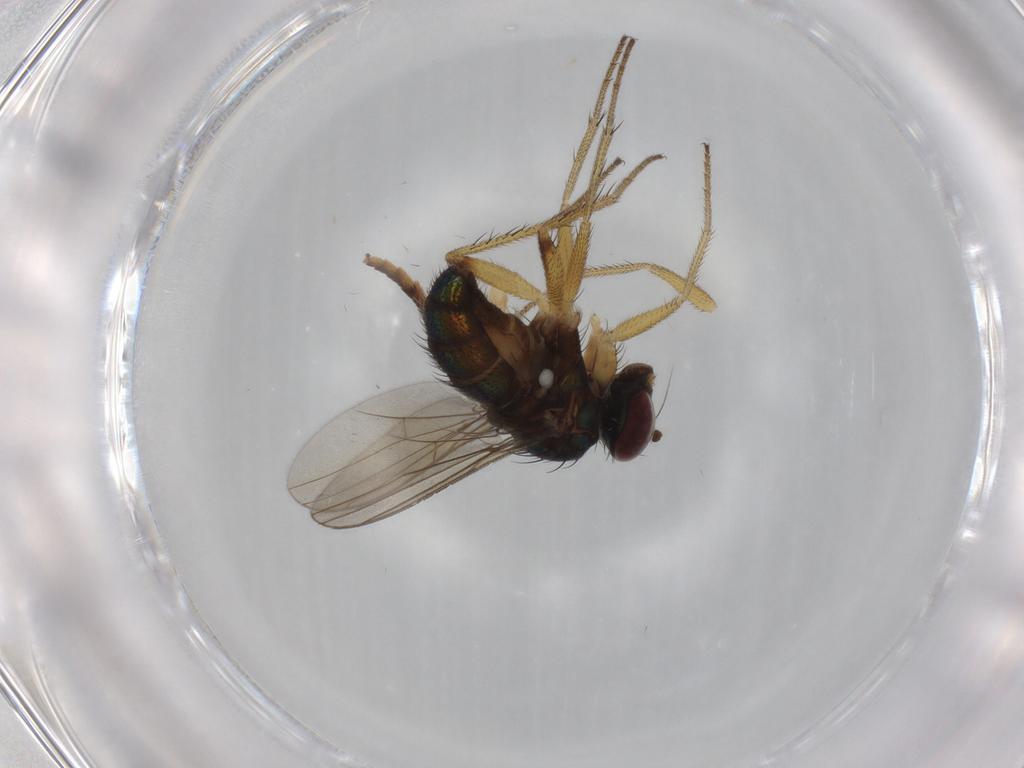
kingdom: Animalia
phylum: Arthropoda
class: Insecta
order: Diptera
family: Dolichopodidae
